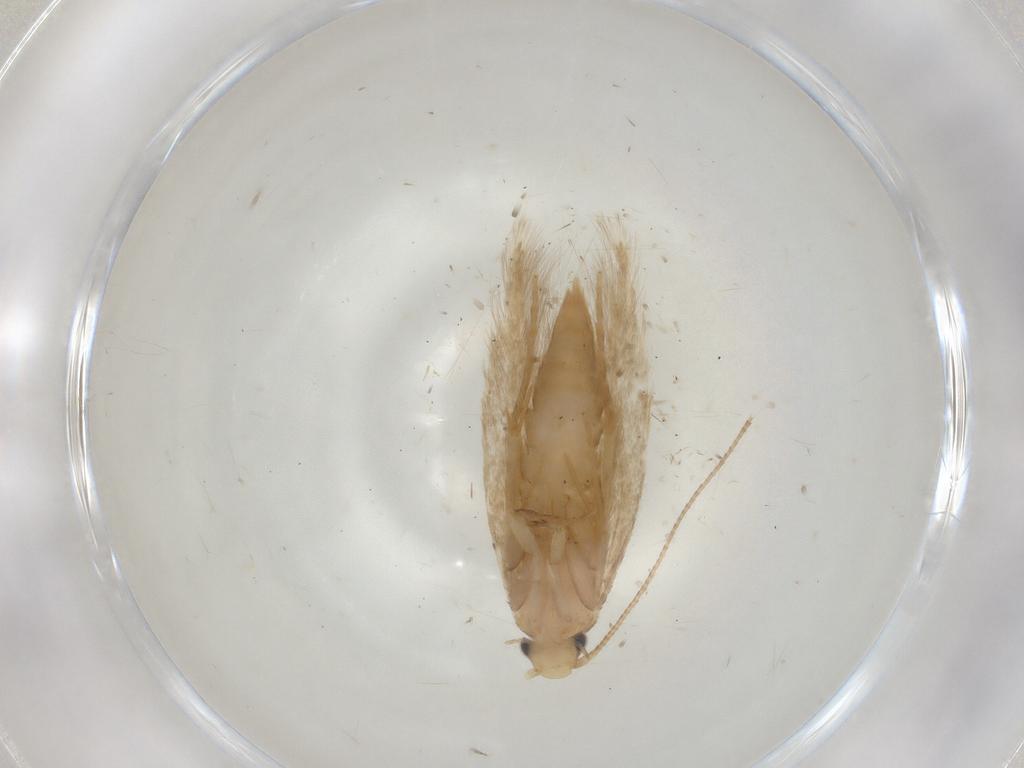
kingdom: Animalia
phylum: Arthropoda
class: Insecta
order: Lepidoptera
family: Tineidae
